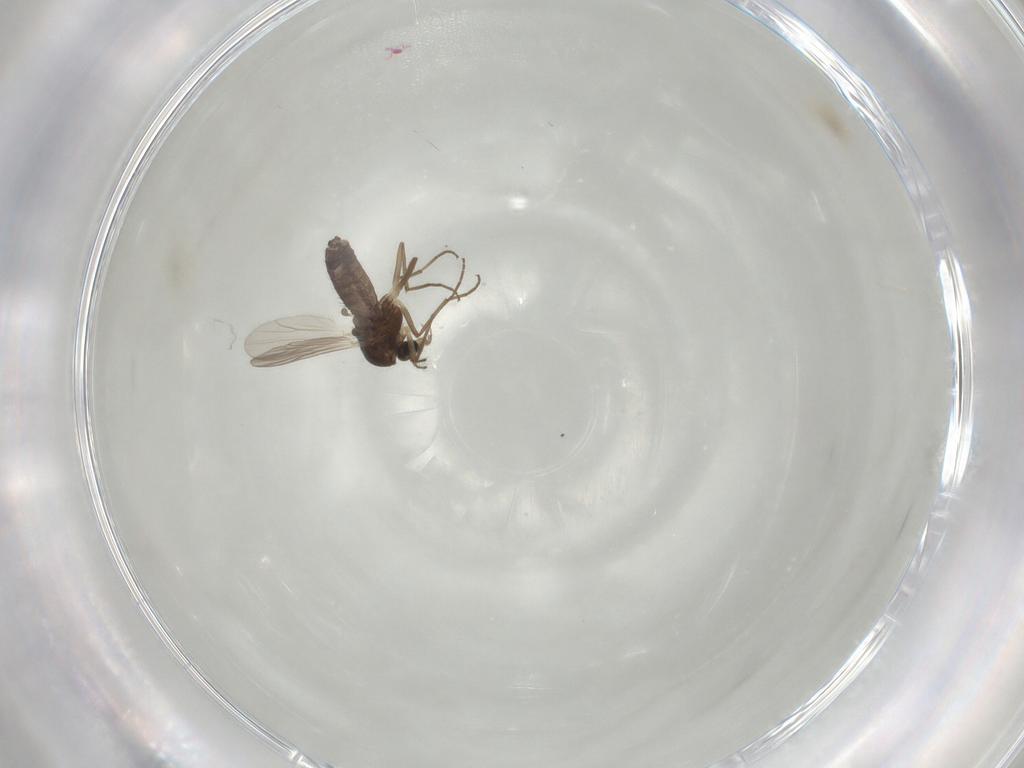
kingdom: Animalia
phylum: Arthropoda
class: Insecta
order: Diptera
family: Chironomidae
